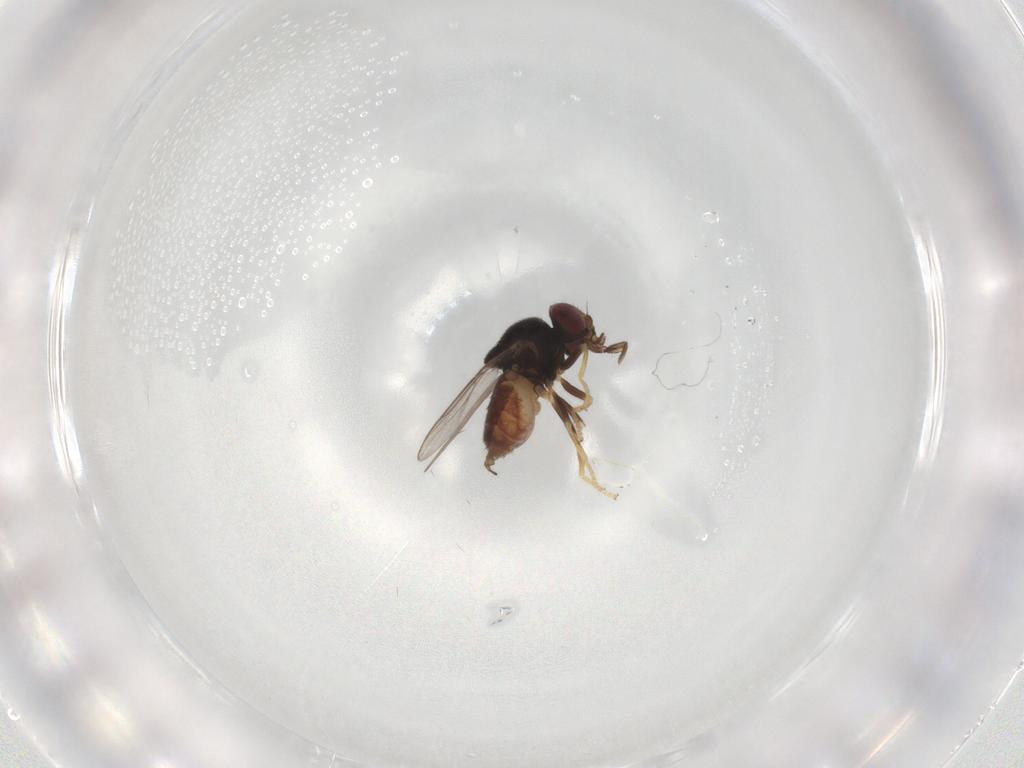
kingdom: Animalia
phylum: Arthropoda
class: Insecta
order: Diptera
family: Chloropidae
